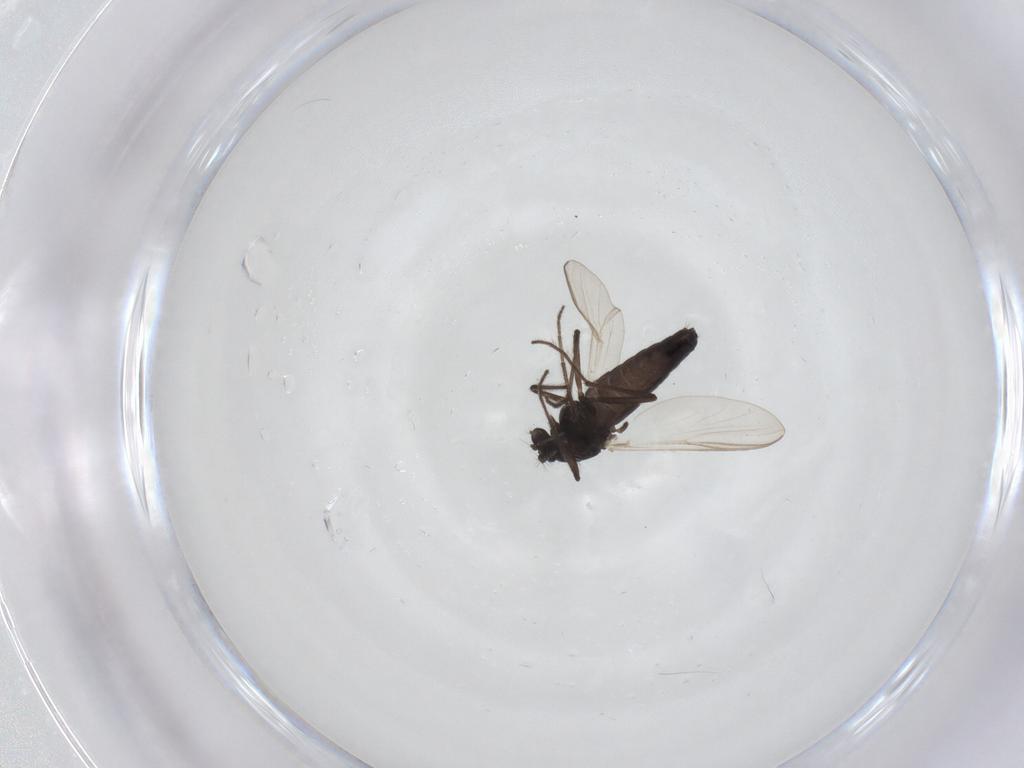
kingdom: Animalia
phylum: Arthropoda
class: Insecta
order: Diptera
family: Chironomidae
